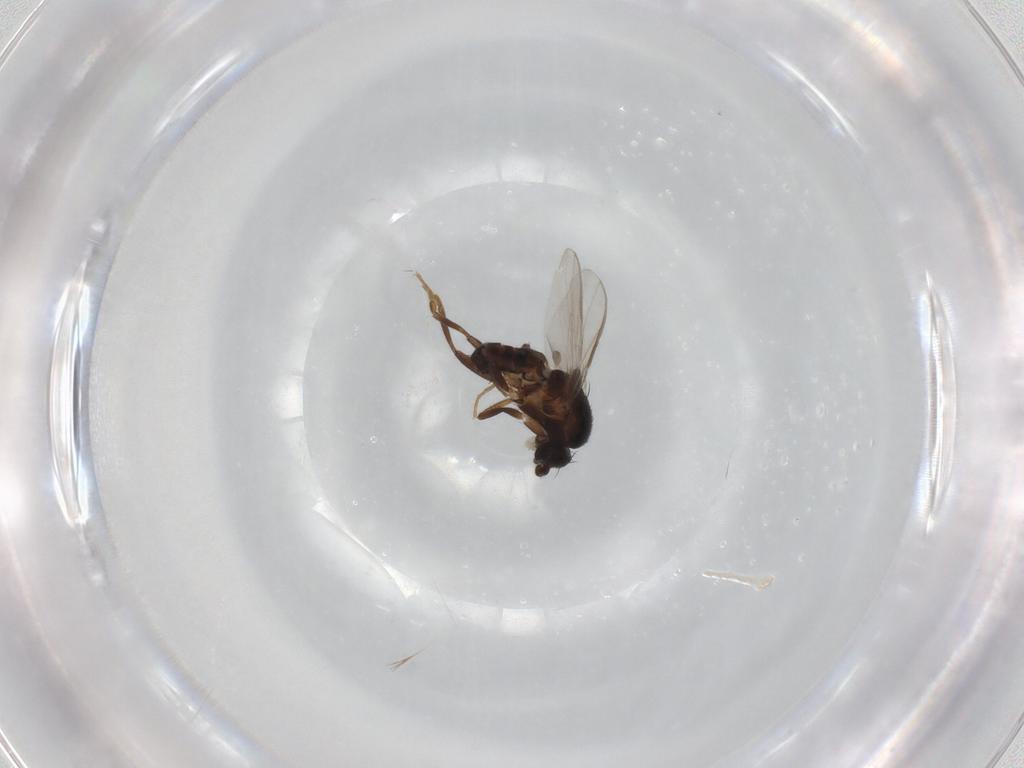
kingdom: Animalia
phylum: Arthropoda
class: Insecta
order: Diptera
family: Sphaeroceridae
